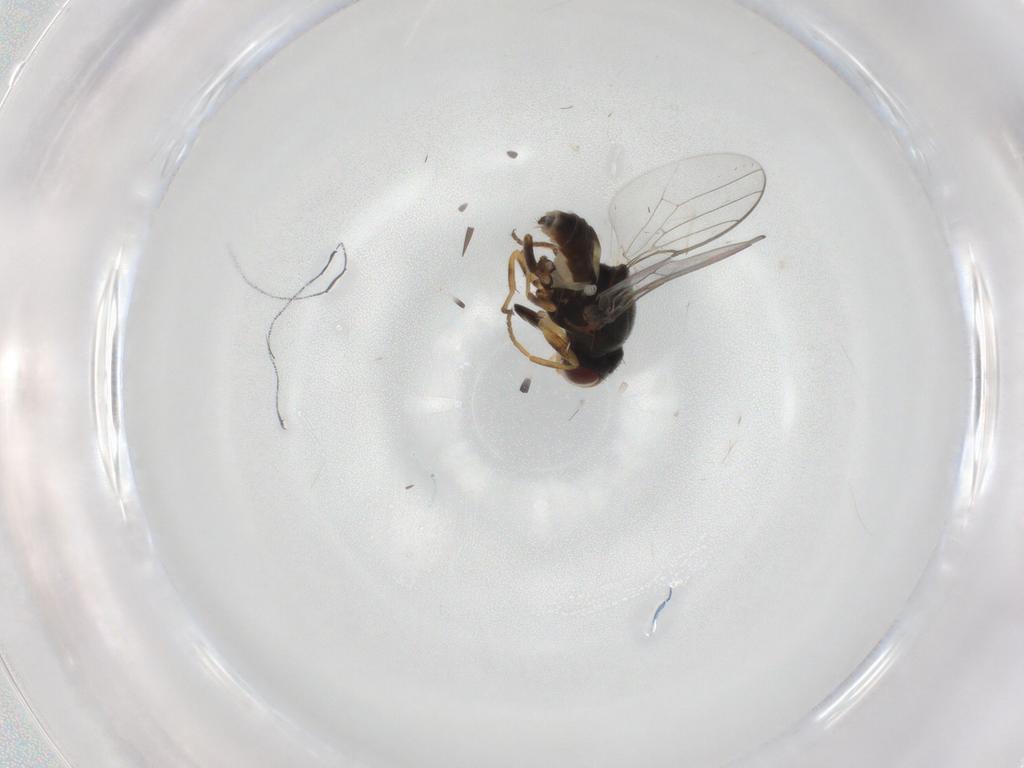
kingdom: Animalia
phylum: Arthropoda
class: Insecta
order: Diptera
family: Chloropidae
